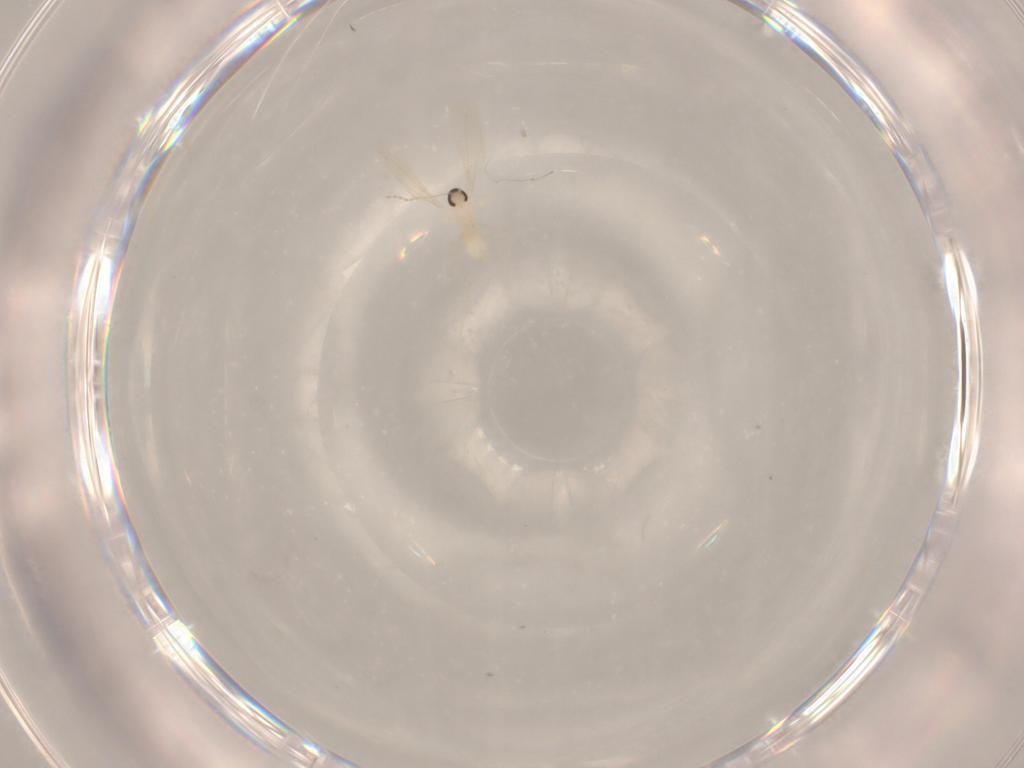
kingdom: Animalia
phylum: Arthropoda
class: Insecta
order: Diptera
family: Cecidomyiidae
